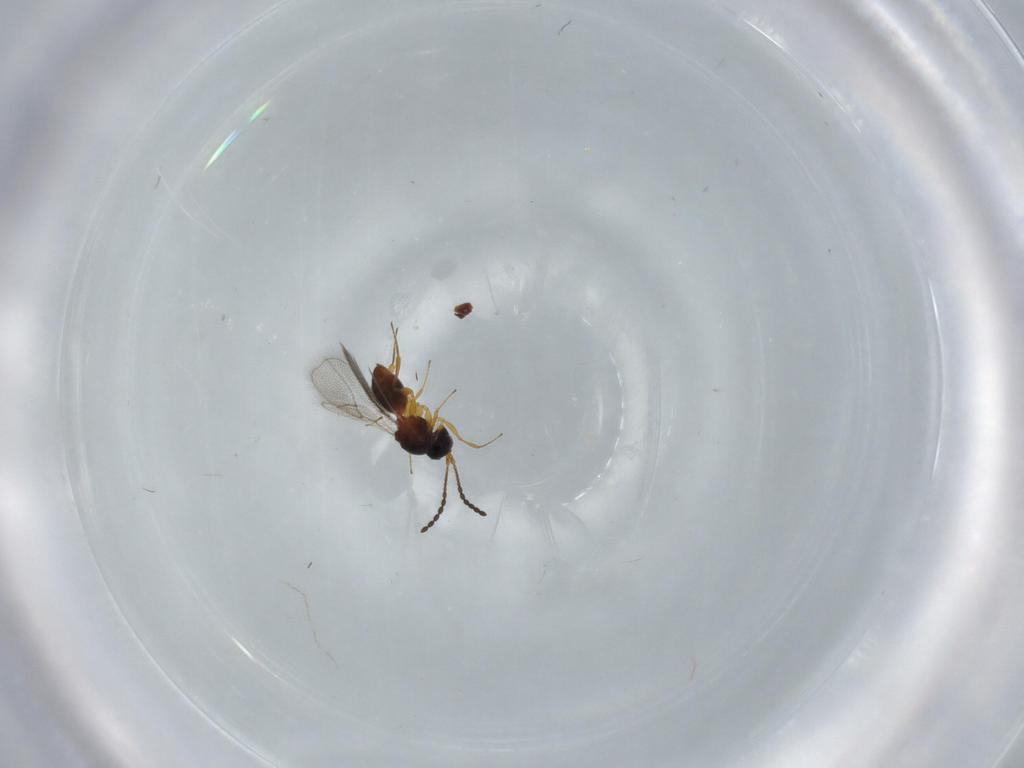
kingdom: Animalia
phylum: Arthropoda
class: Insecta
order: Hymenoptera
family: Figitidae
